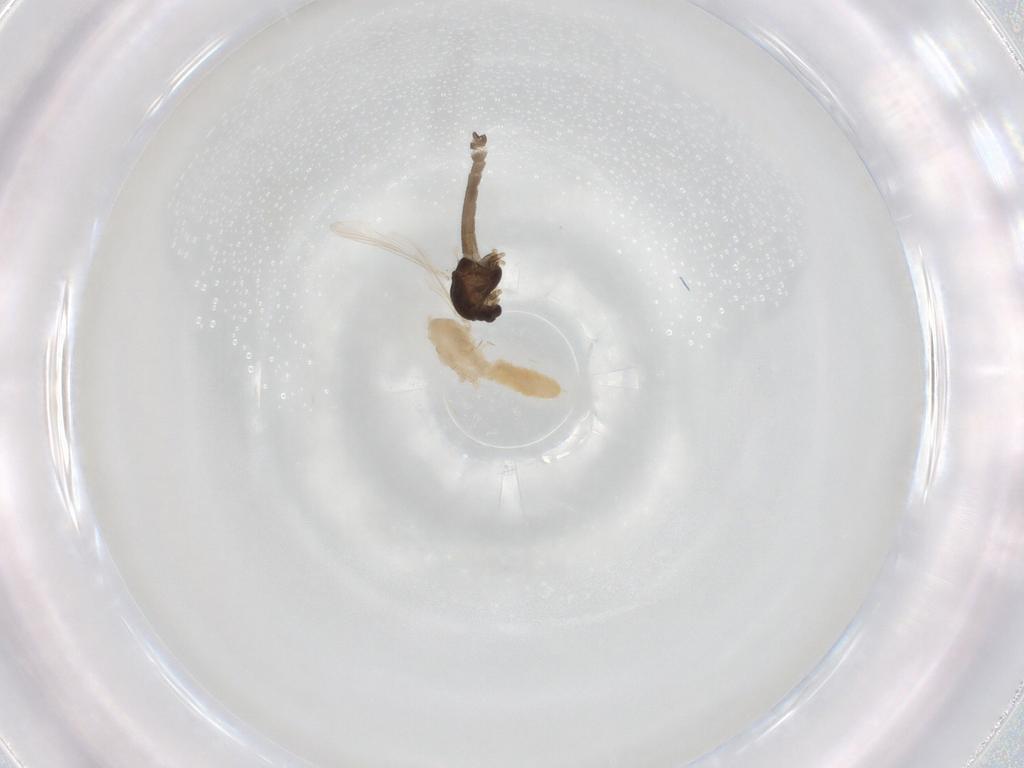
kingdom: Animalia
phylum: Arthropoda
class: Insecta
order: Diptera
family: Cecidomyiidae
